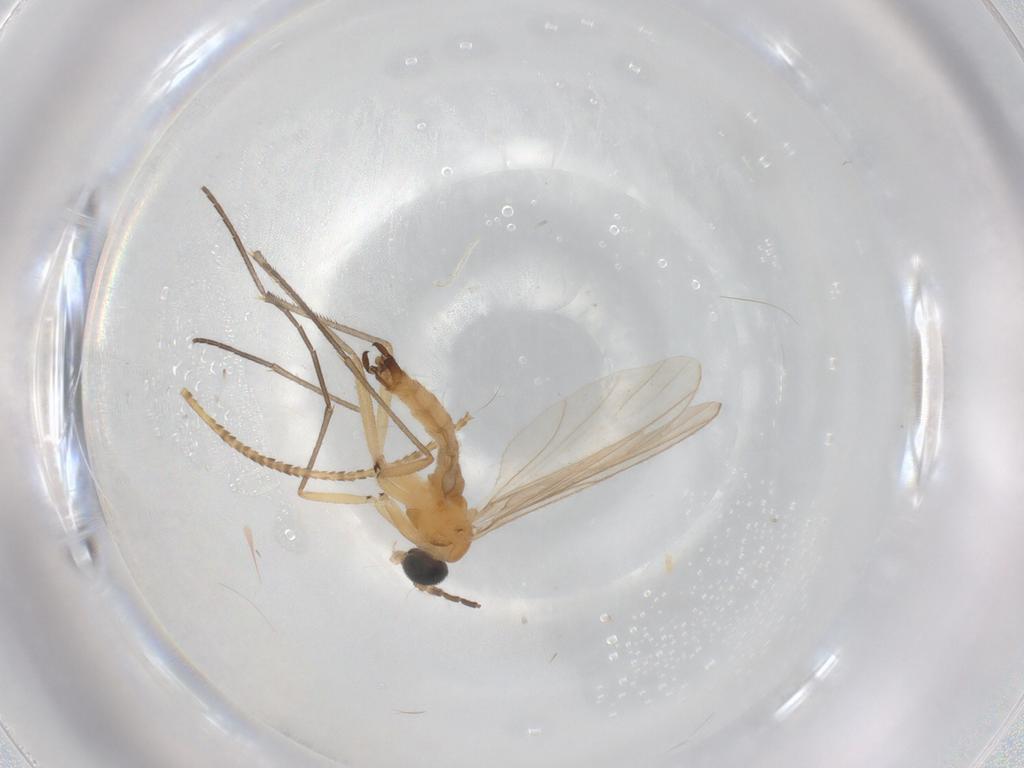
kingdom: Animalia
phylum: Arthropoda
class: Insecta
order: Diptera
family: Sciaridae
